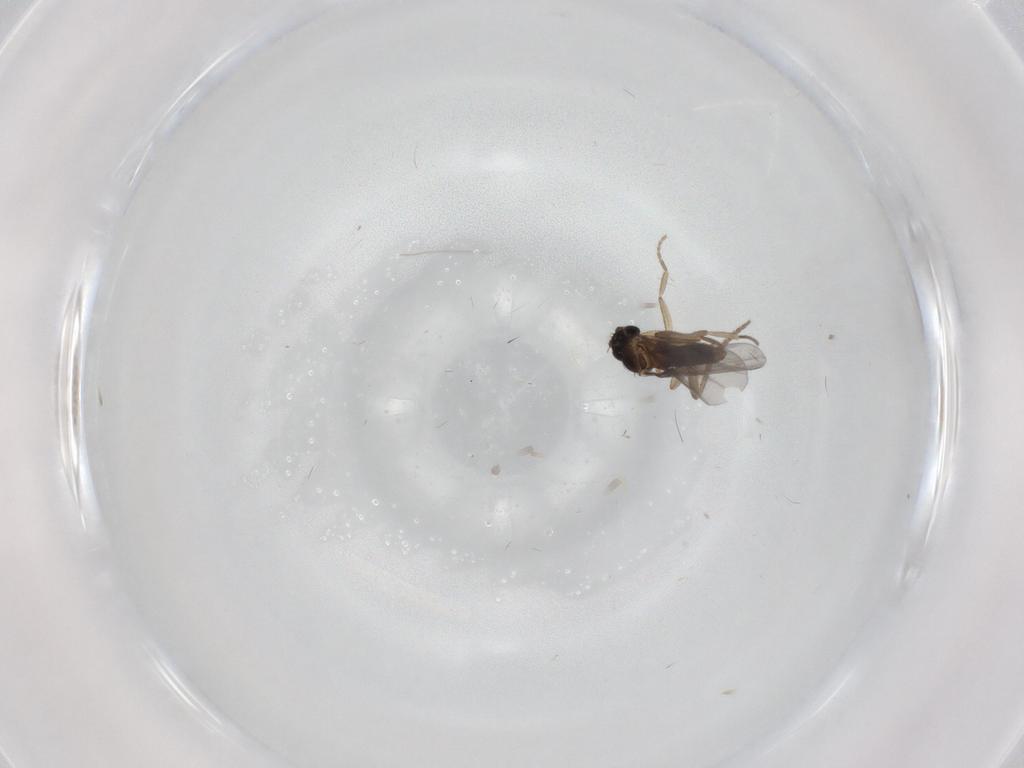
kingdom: Animalia
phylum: Arthropoda
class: Insecta
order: Diptera
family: Phoridae
